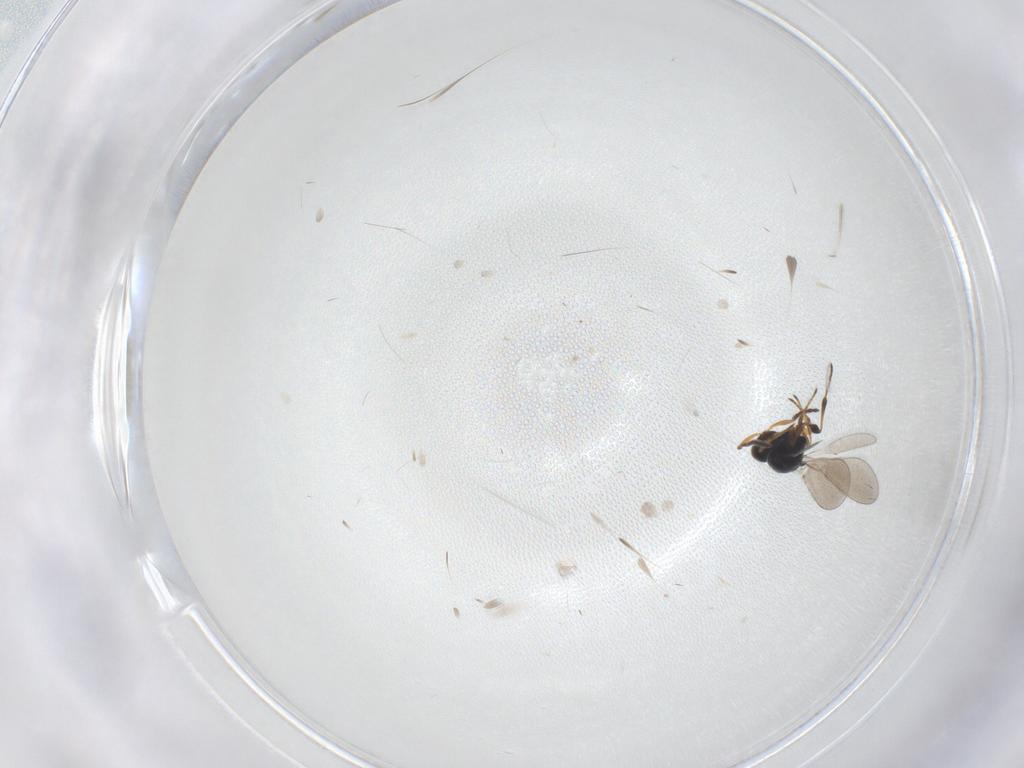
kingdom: Animalia
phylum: Arthropoda
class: Insecta
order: Hymenoptera
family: Platygastridae
